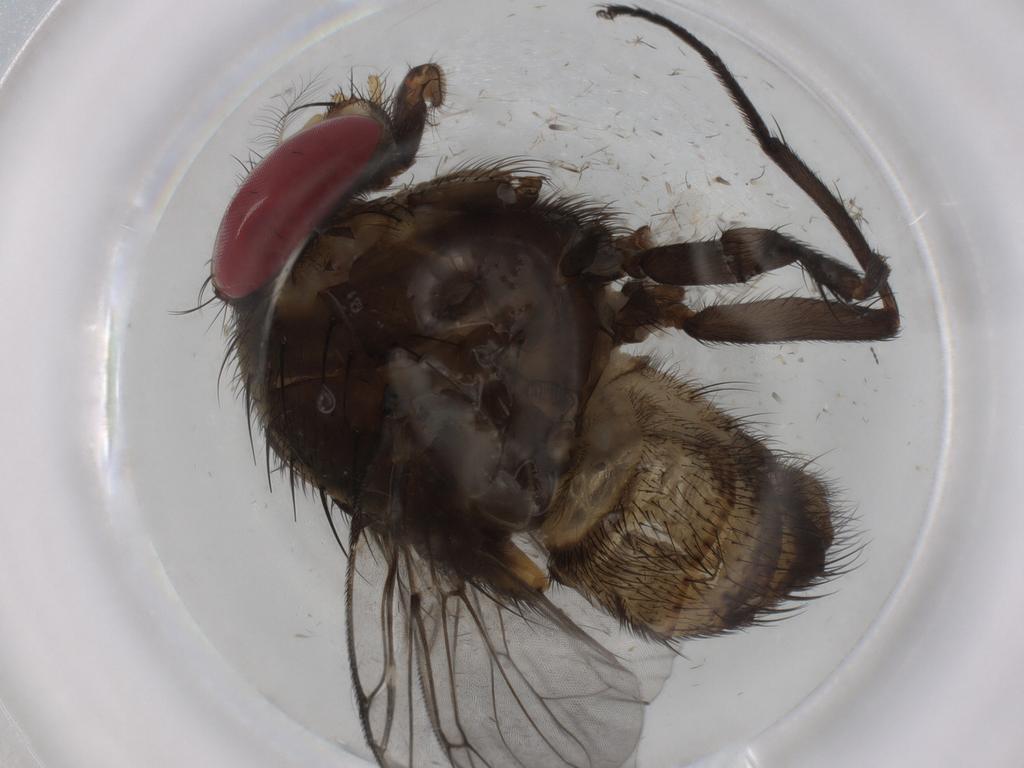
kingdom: Animalia
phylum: Arthropoda
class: Insecta
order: Diptera
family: Muscidae
